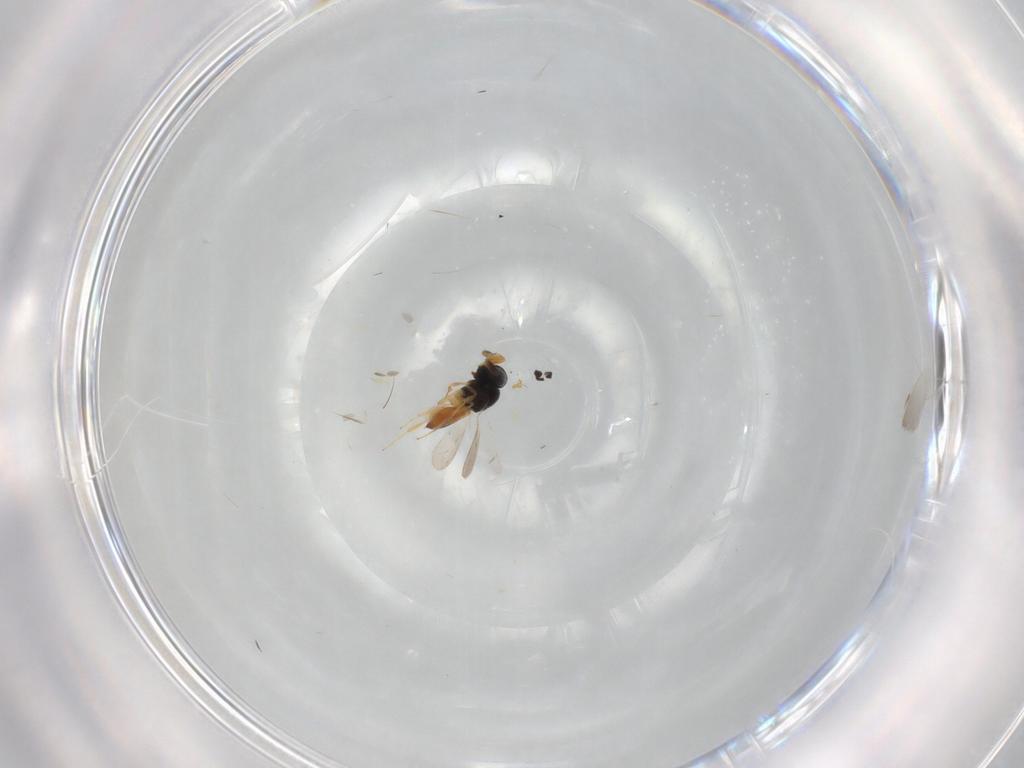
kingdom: Animalia
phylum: Arthropoda
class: Insecta
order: Hymenoptera
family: Scelionidae
